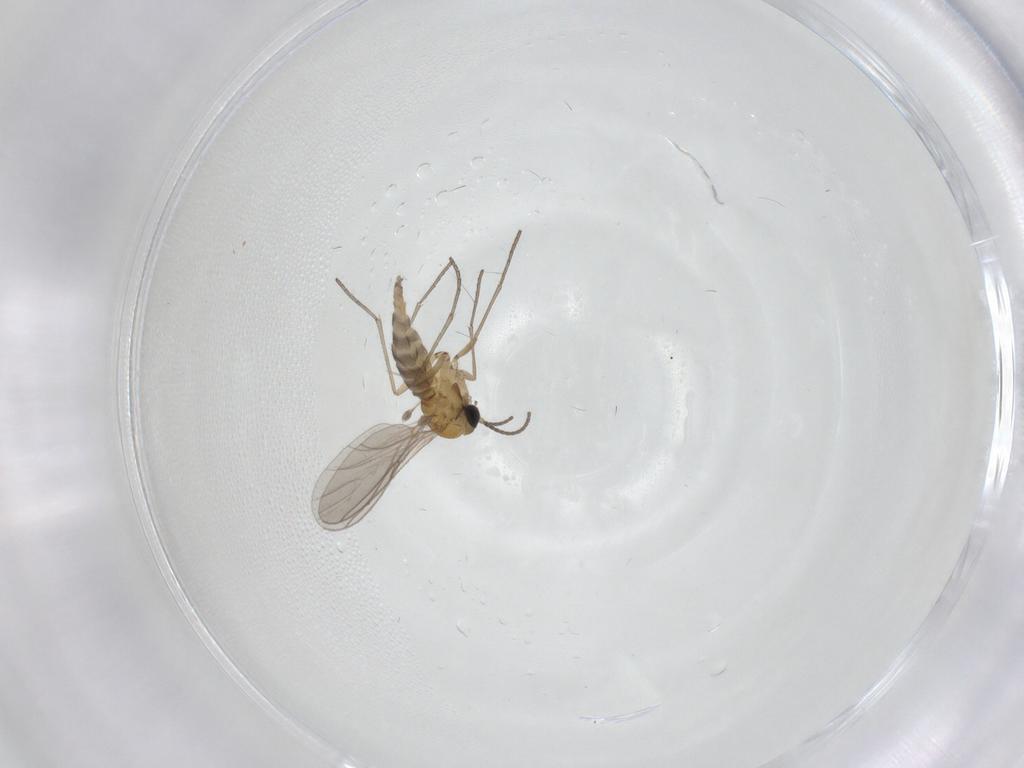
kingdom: Animalia
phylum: Arthropoda
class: Insecta
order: Diptera
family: Sciaridae
